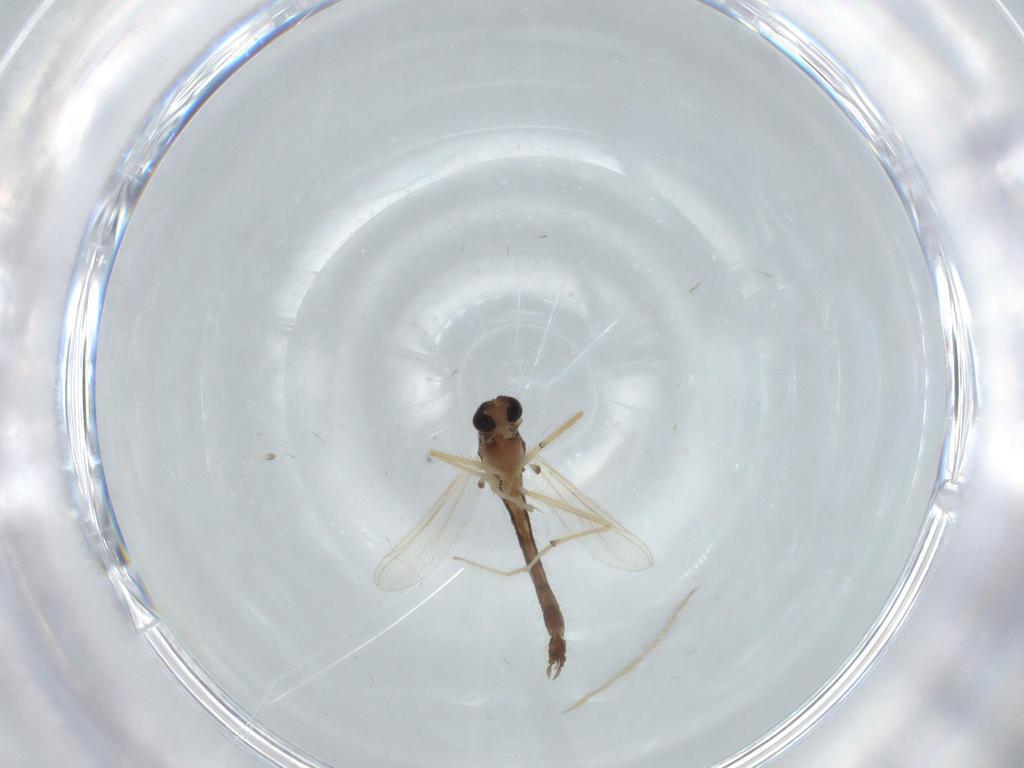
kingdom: Animalia
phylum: Arthropoda
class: Insecta
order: Diptera
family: Chironomidae
